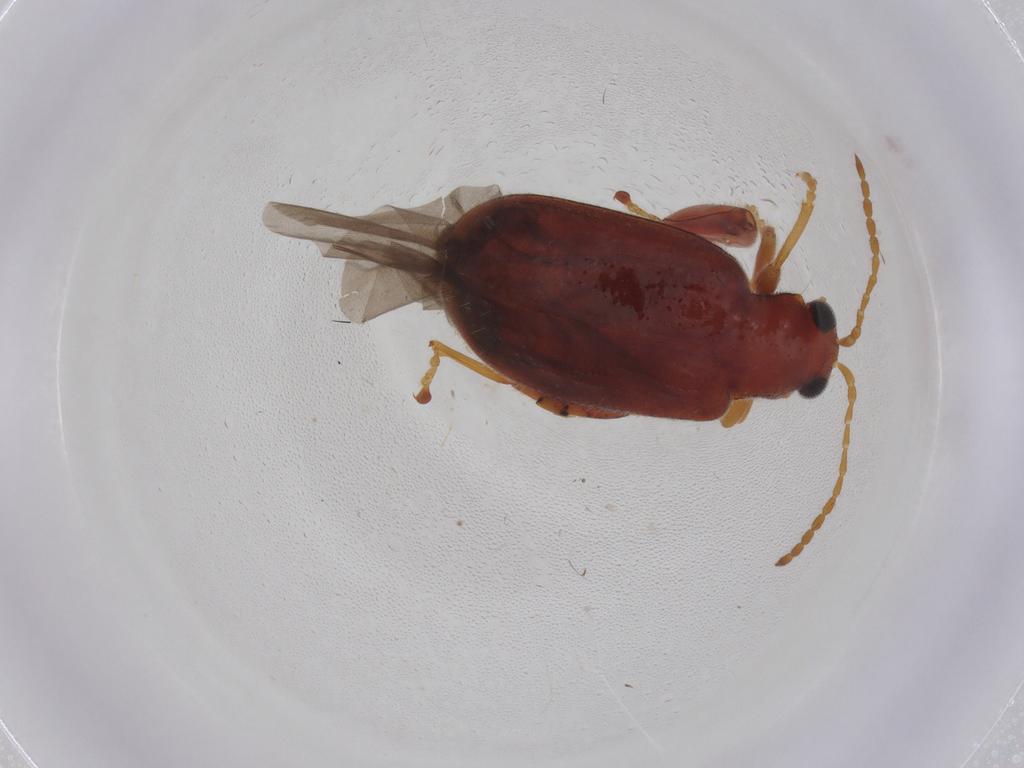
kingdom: Animalia
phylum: Arthropoda
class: Insecta
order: Coleoptera
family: Chrysomelidae
